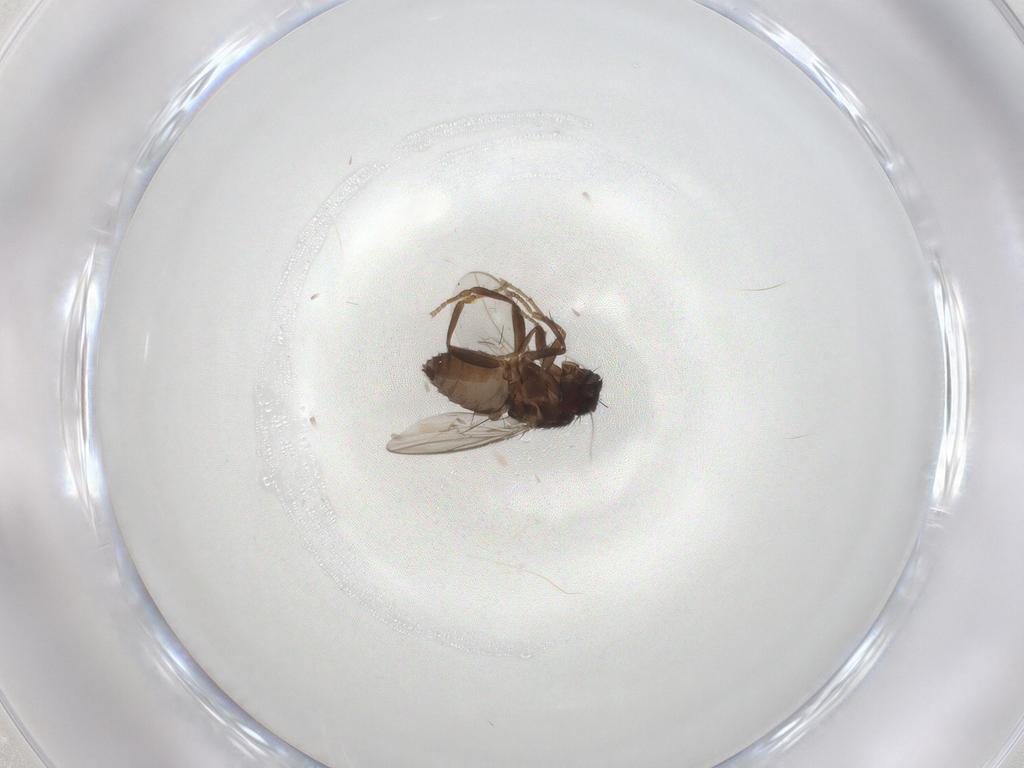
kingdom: Animalia
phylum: Arthropoda
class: Insecta
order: Diptera
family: Sphaeroceridae
